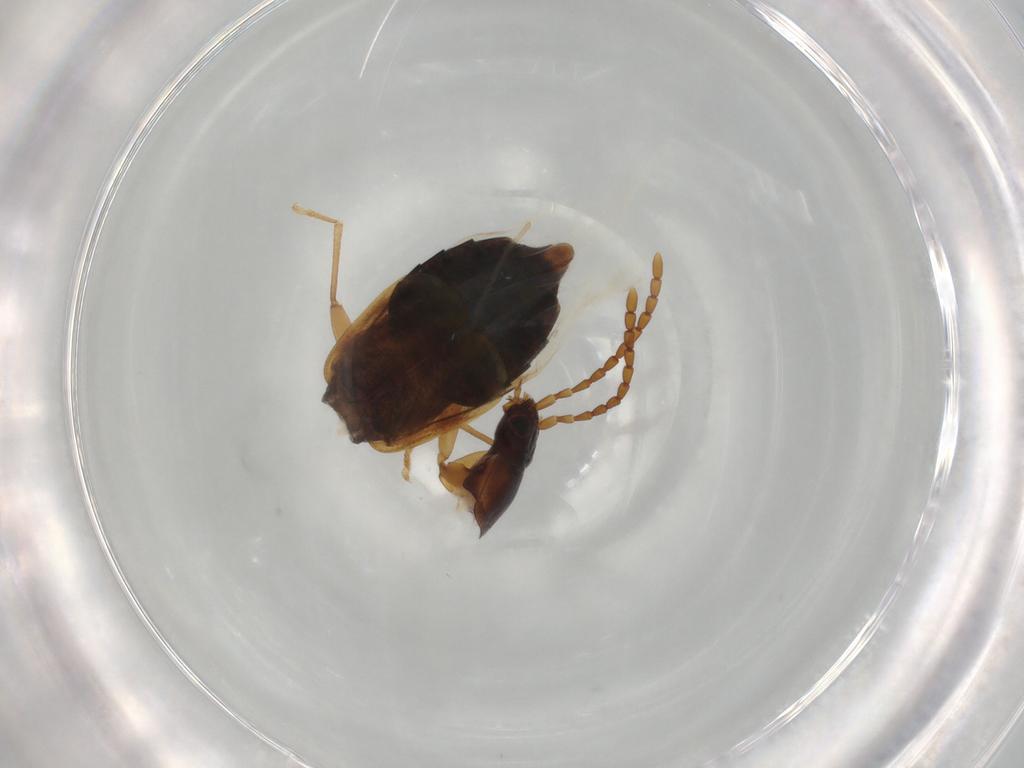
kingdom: Animalia
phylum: Arthropoda
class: Insecta
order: Coleoptera
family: Staphylinidae
